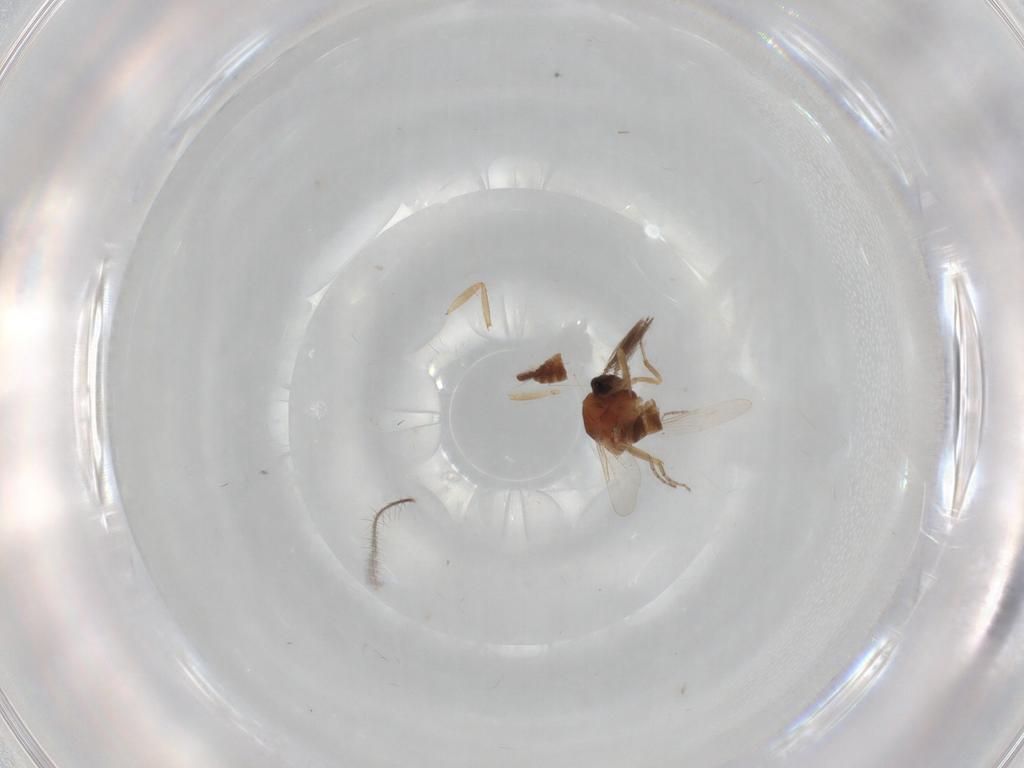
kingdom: Animalia
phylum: Arthropoda
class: Insecta
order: Diptera
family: Ceratopogonidae
